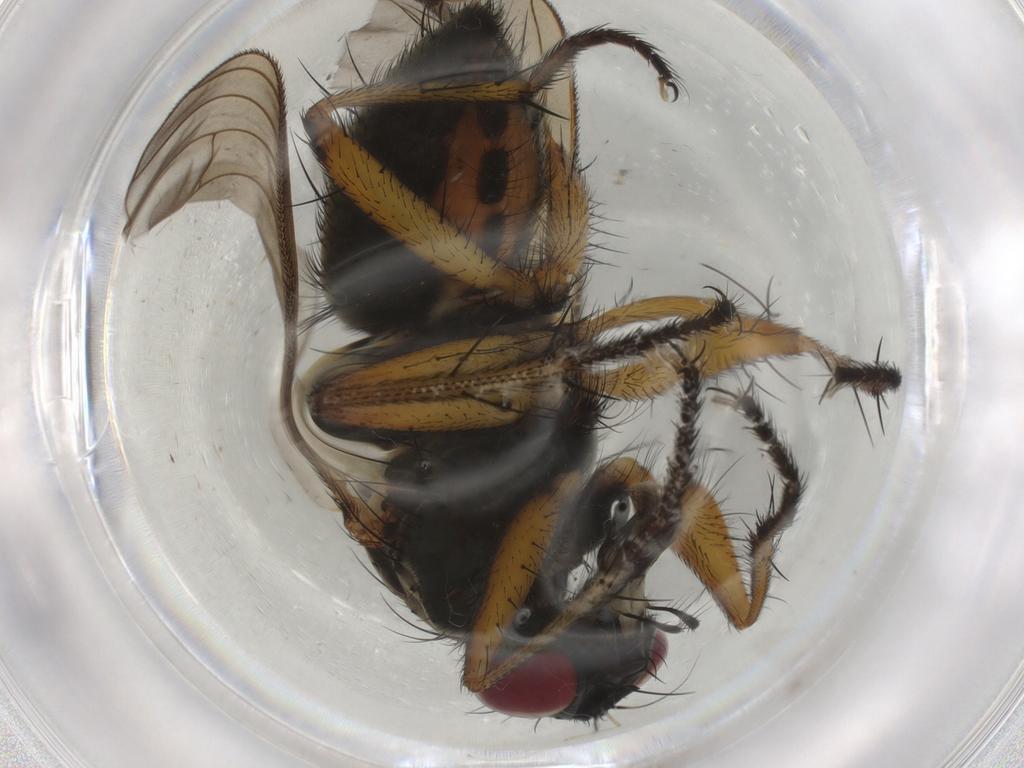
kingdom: Animalia
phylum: Arthropoda
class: Insecta
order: Diptera
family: Muscidae
